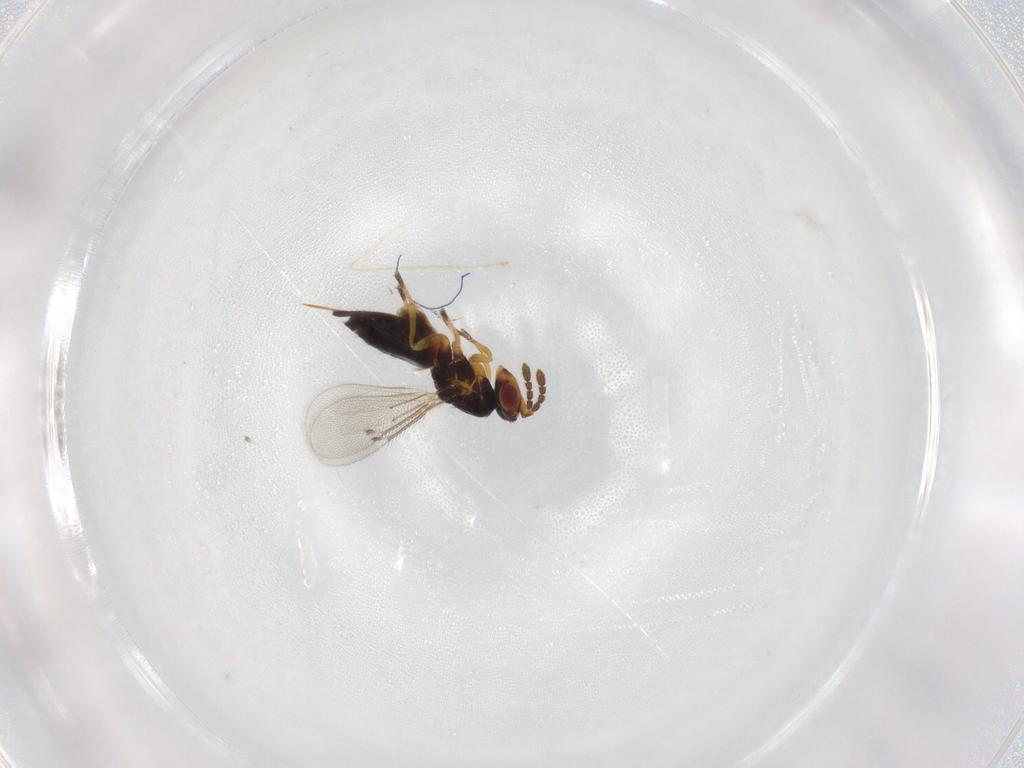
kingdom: Animalia
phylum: Arthropoda
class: Insecta
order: Hymenoptera
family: Eulophidae
